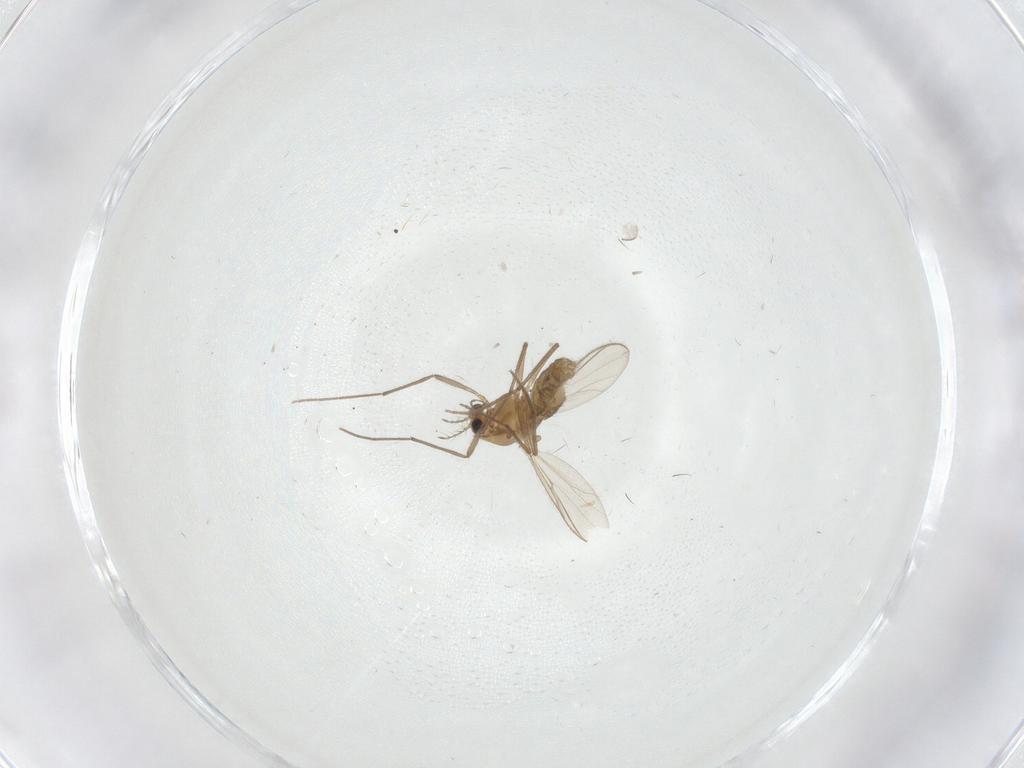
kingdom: Animalia
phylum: Arthropoda
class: Insecta
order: Diptera
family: Chironomidae
